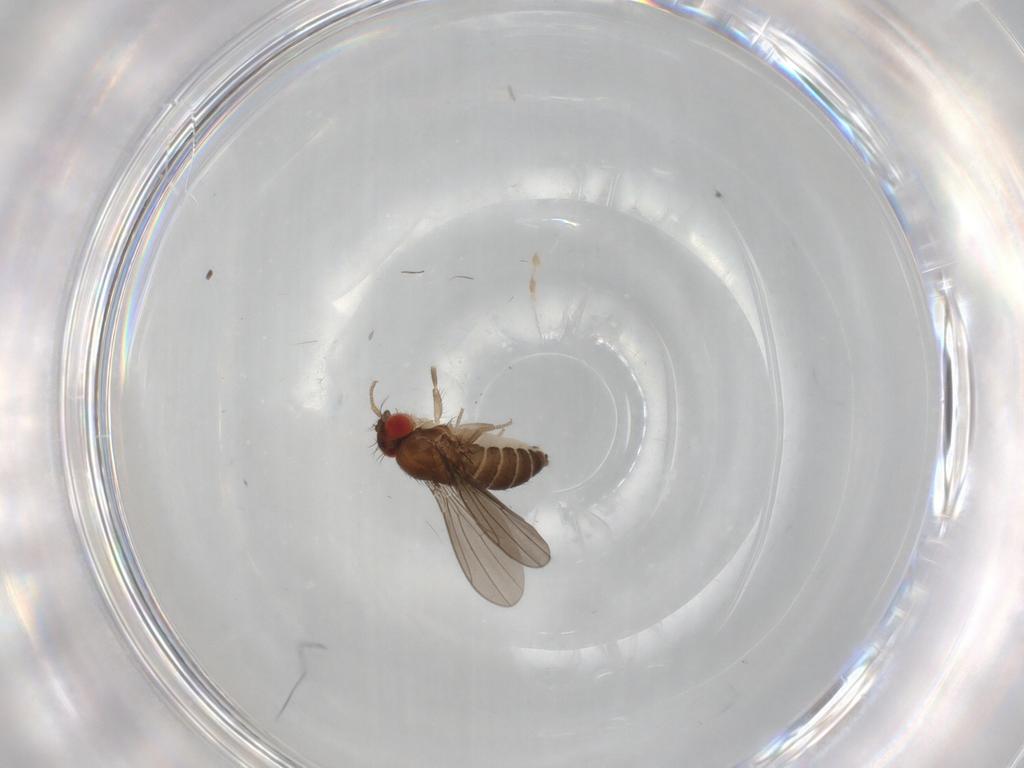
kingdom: Animalia
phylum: Arthropoda
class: Insecta
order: Diptera
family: Drosophilidae
